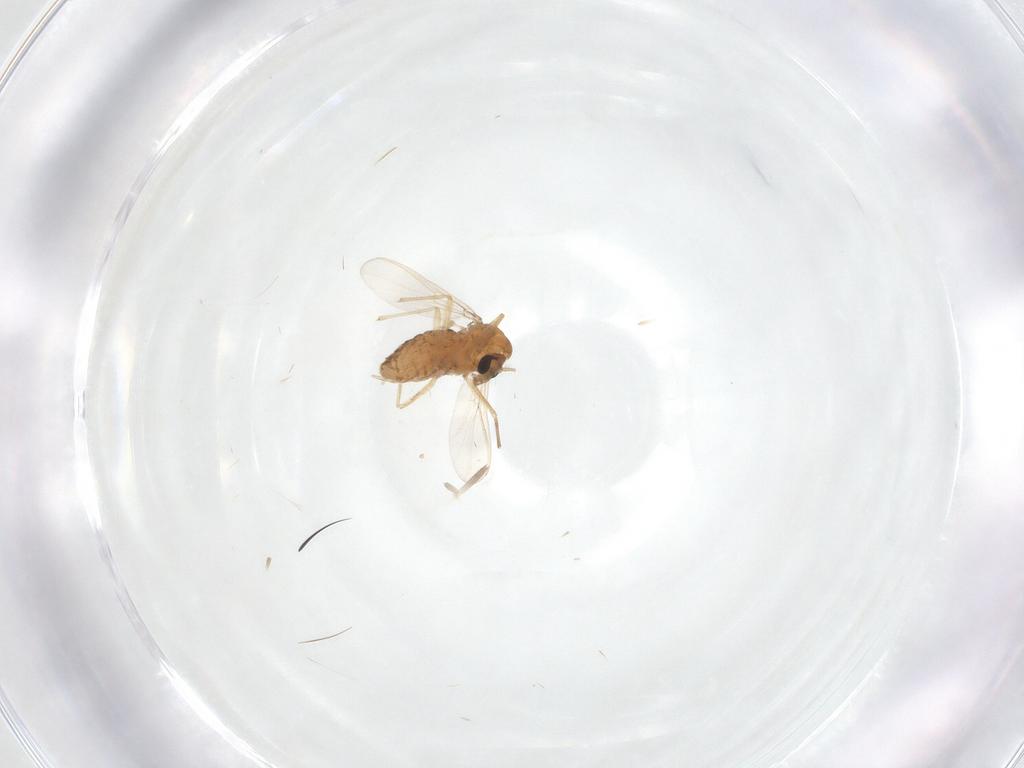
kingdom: Animalia
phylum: Arthropoda
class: Insecta
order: Diptera
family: Chironomidae
